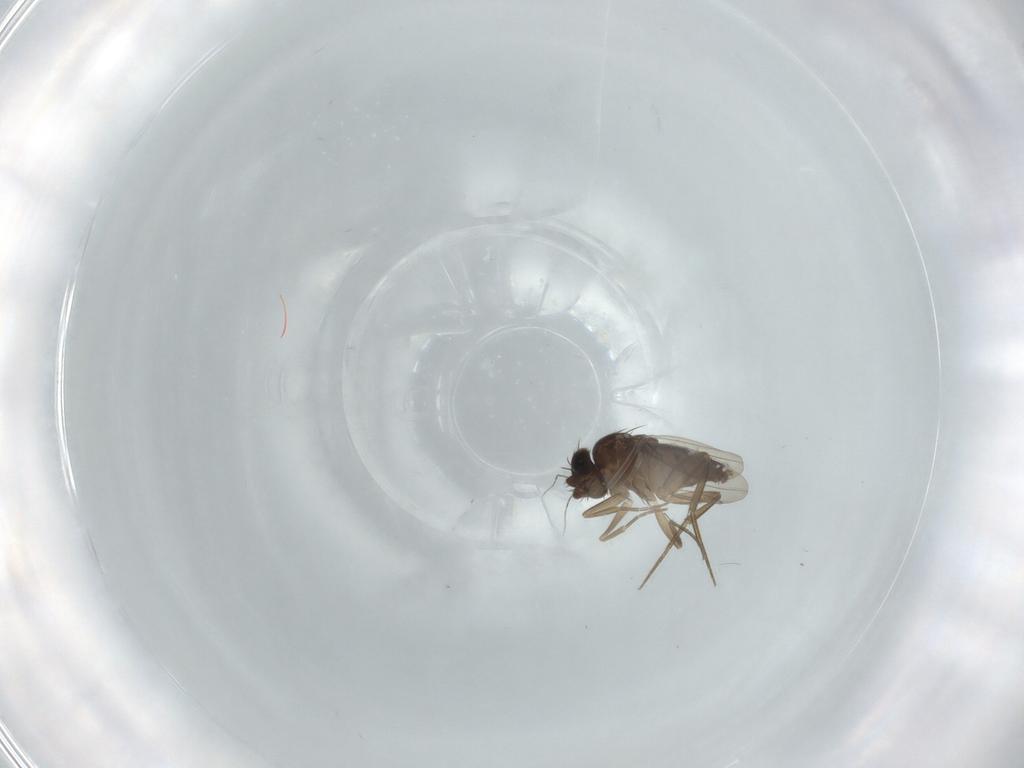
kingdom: Animalia
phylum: Arthropoda
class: Insecta
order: Diptera
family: Phoridae
